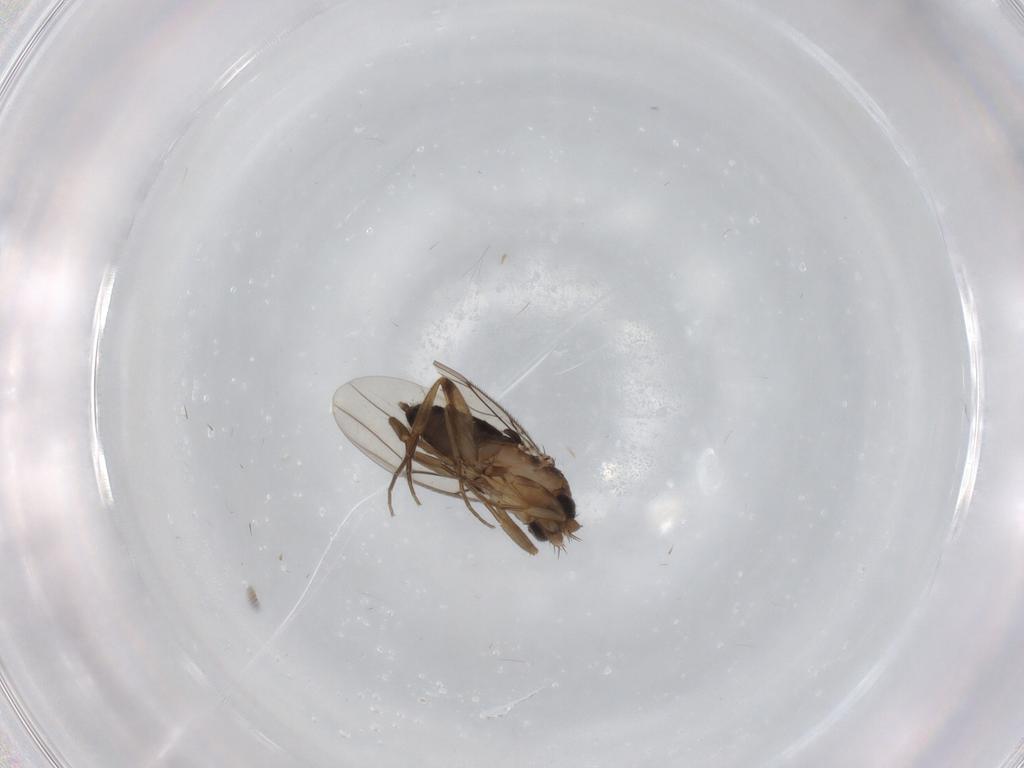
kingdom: Animalia
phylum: Arthropoda
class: Insecta
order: Diptera
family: Phoridae
